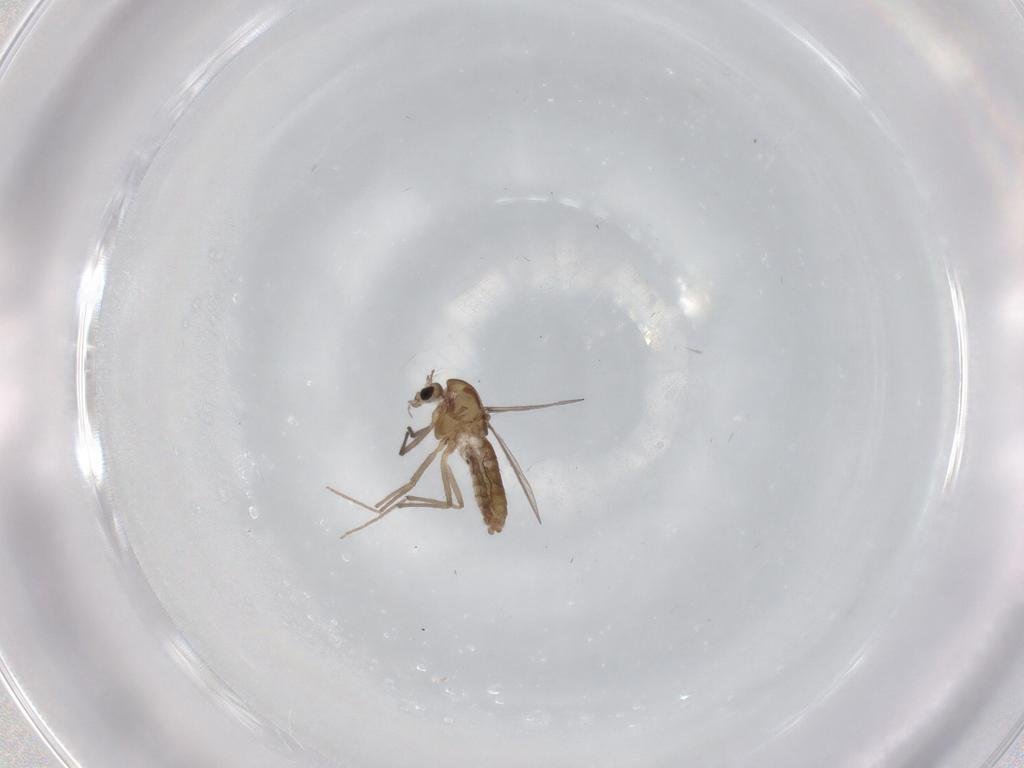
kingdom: Animalia
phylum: Arthropoda
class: Insecta
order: Diptera
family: Chironomidae
